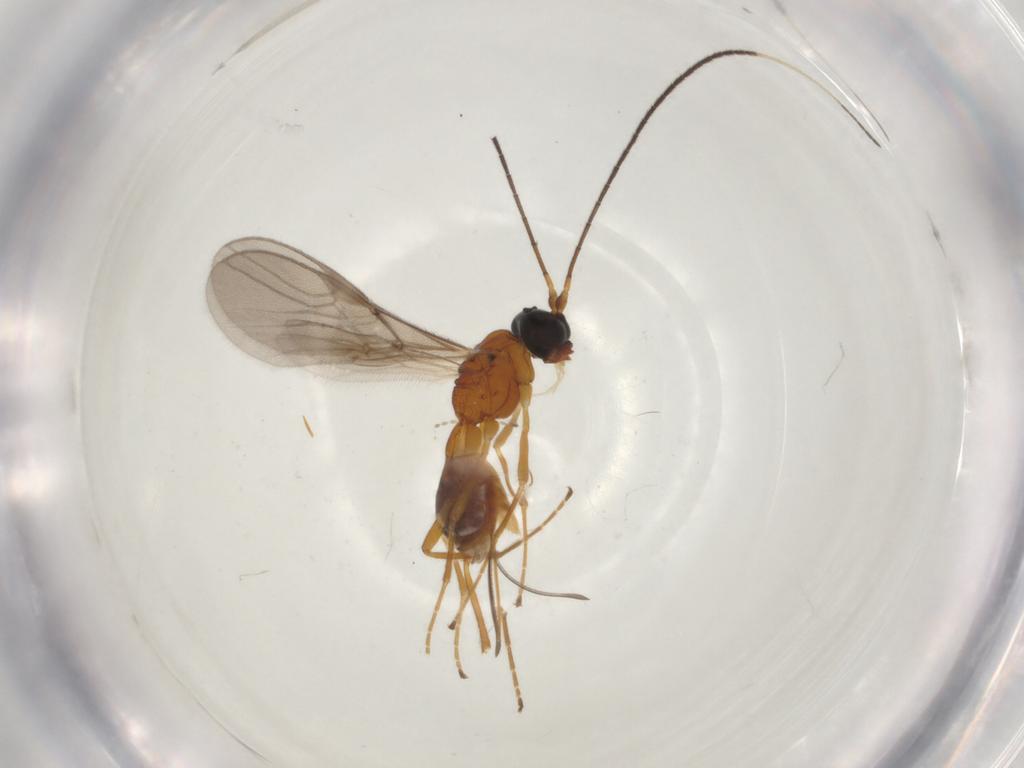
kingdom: Animalia
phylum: Arthropoda
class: Insecta
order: Hymenoptera
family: Braconidae
